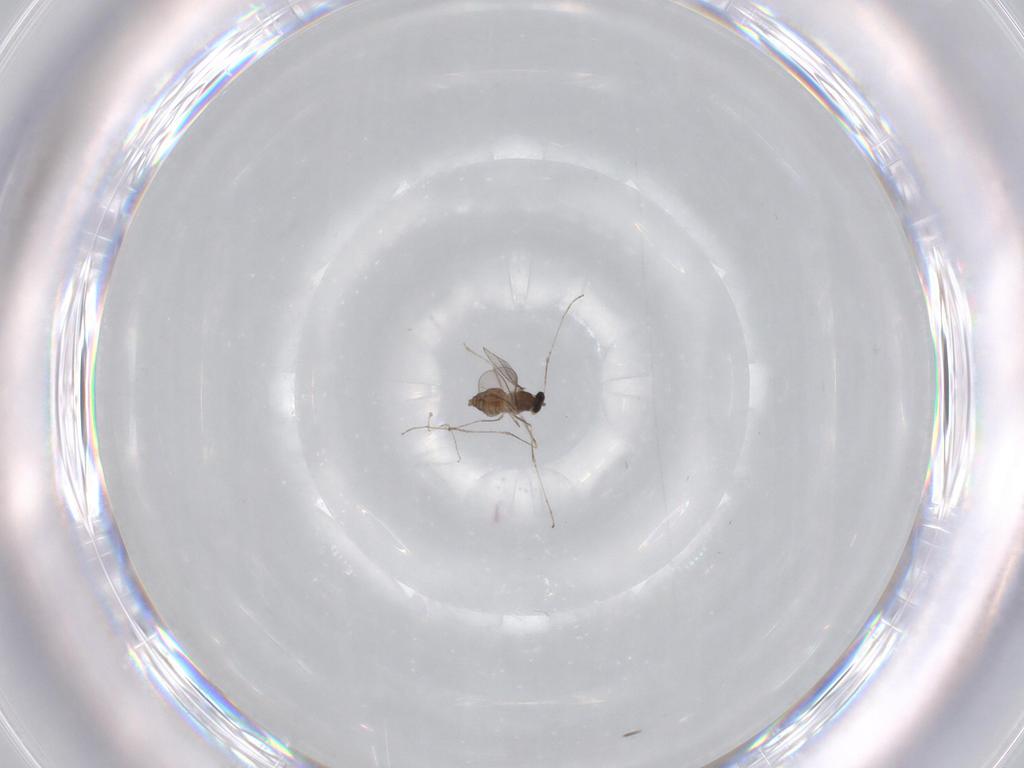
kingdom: Animalia
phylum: Arthropoda
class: Insecta
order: Diptera
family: Cecidomyiidae
